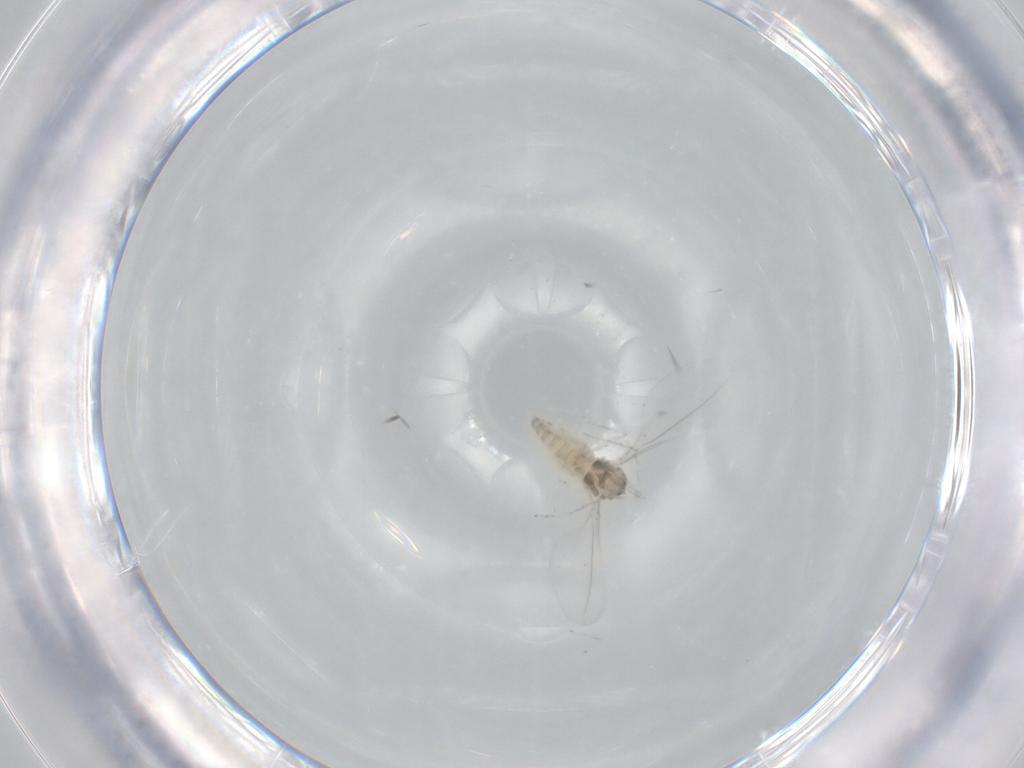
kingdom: Animalia
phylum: Arthropoda
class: Insecta
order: Diptera
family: Cecidomyiidae
